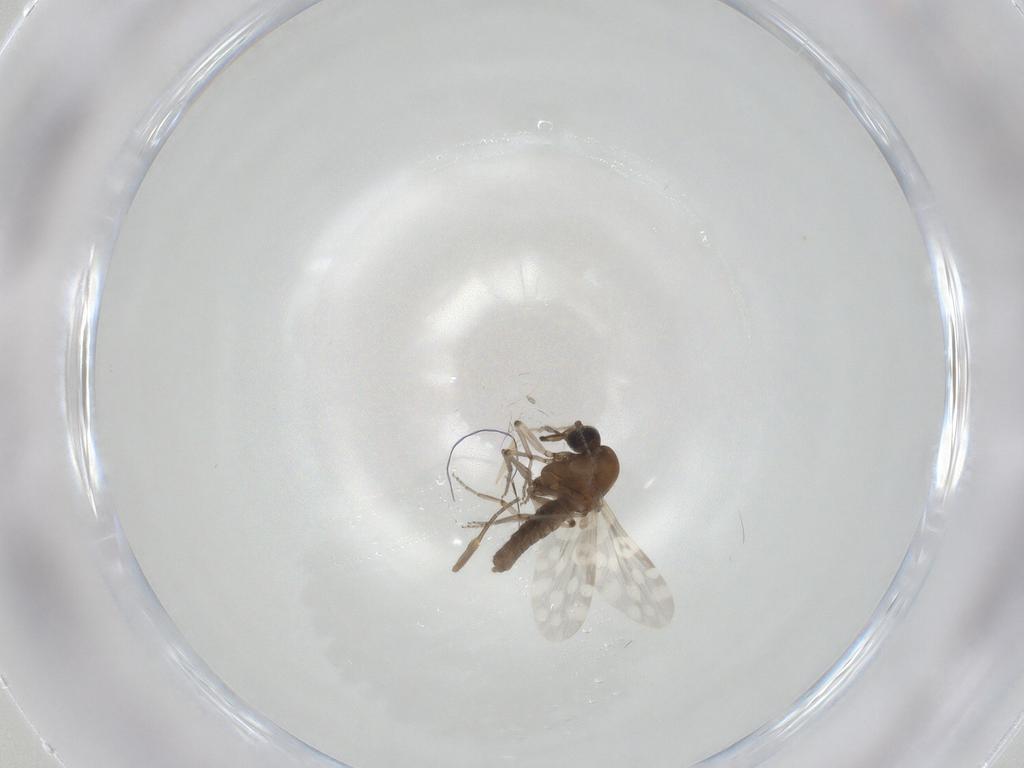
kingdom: Animalia
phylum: Arthropoda
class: Insecta
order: Diptera
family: Phoridae
